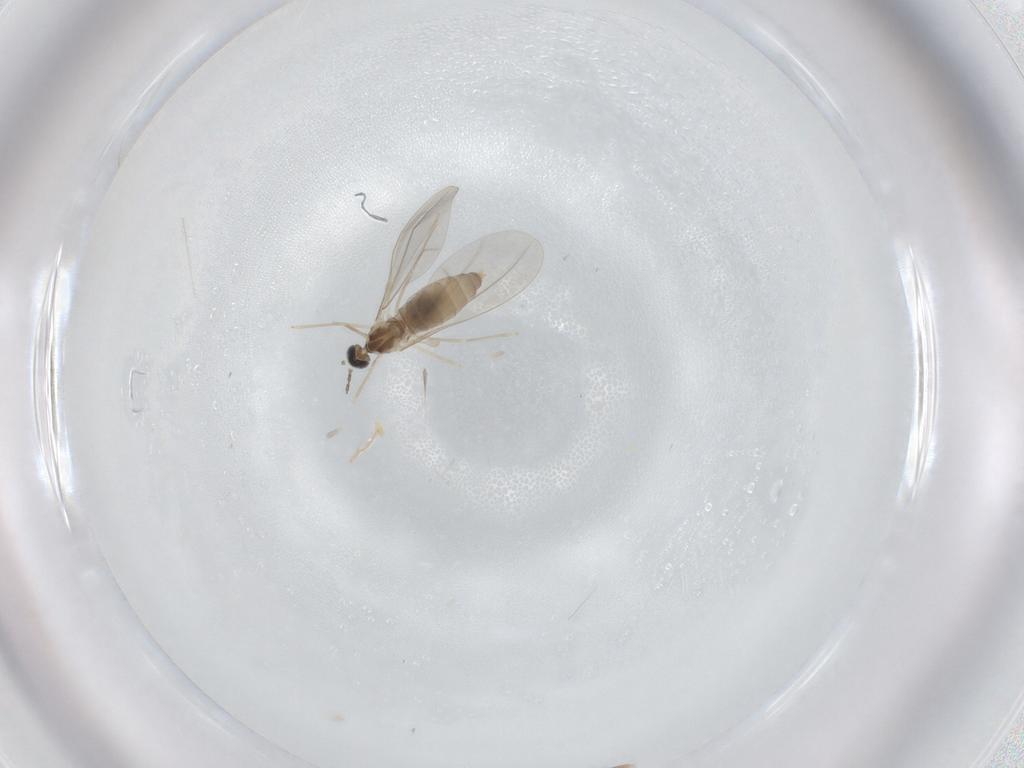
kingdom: Animalia
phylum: Arthropoda
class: Insecta
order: Diptera
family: Cecidomyiidae
